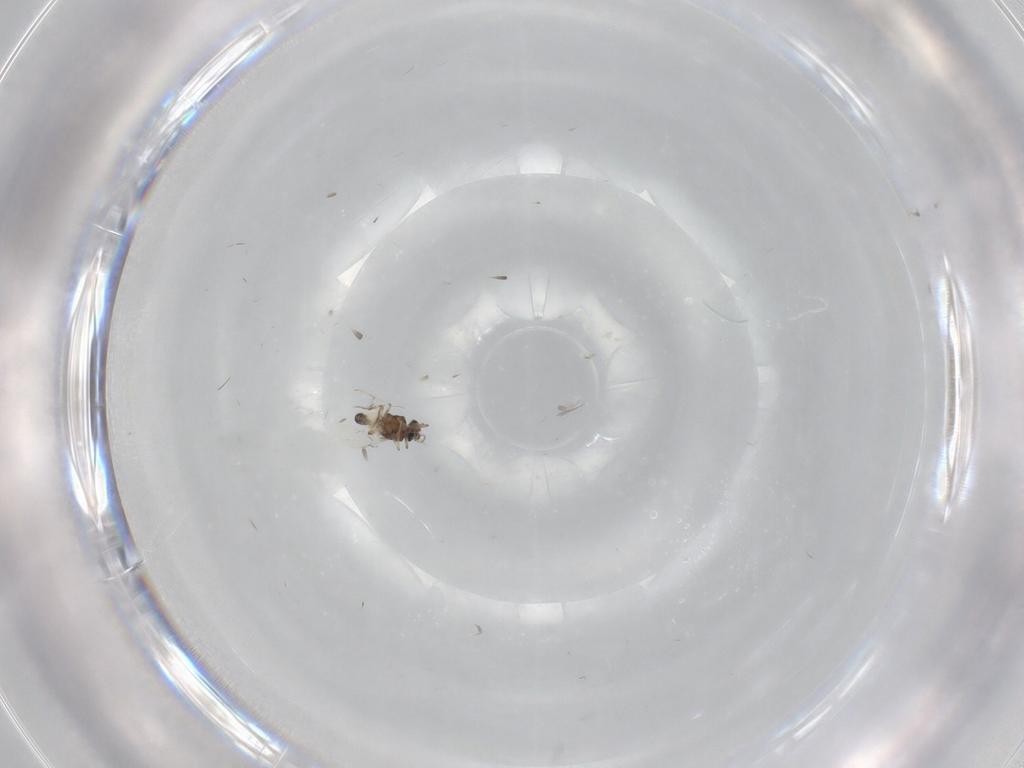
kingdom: Animalia
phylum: Arthropoda
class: Insecta
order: Diptera
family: Ceratopogonidae
